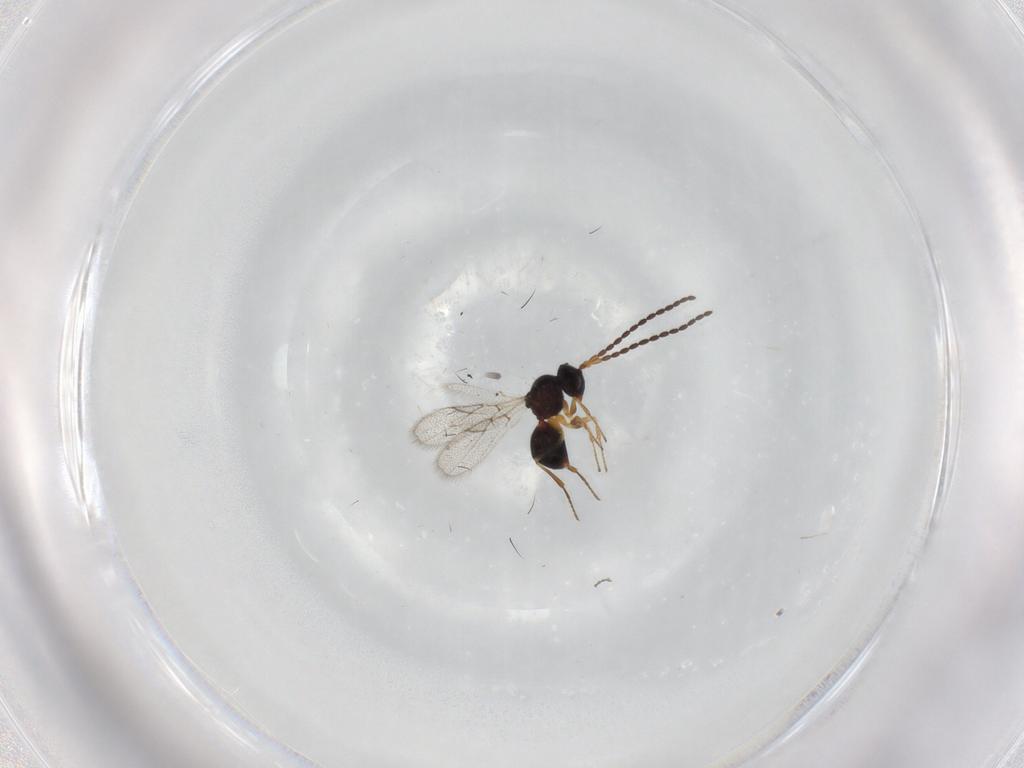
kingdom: Animalia
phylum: Arthropoda
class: Insecta
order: Hymenoptera
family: Figitidae
